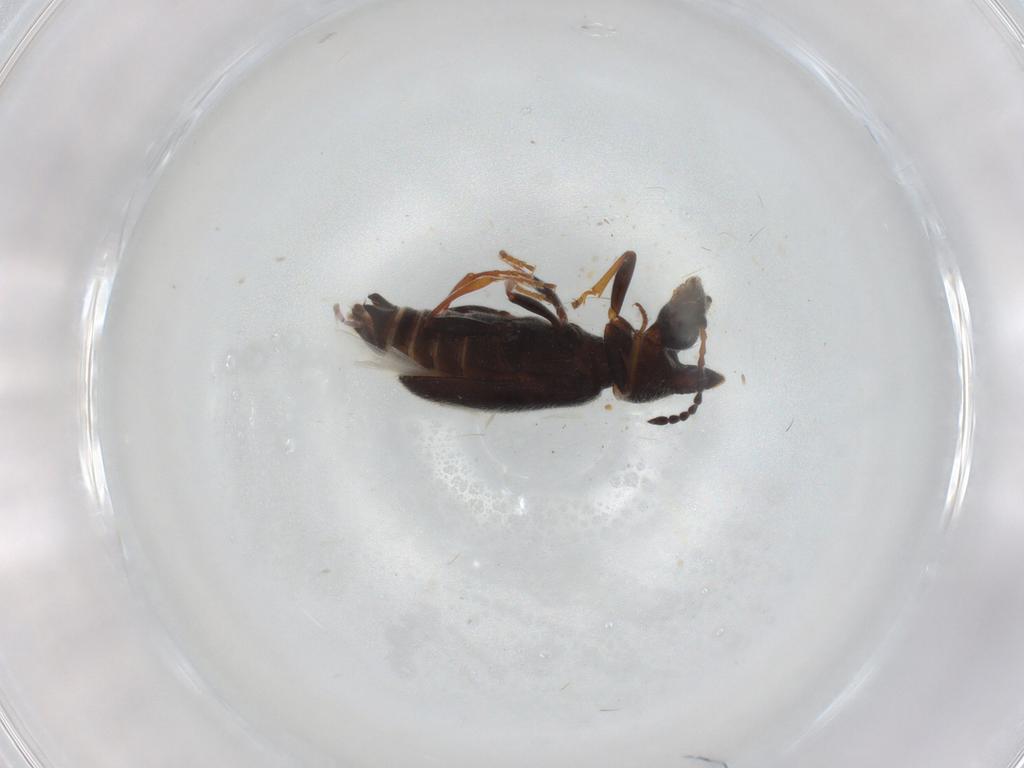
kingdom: Animalia
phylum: Arthropoda
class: Insecta
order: Coleoptera
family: Anthicidae
